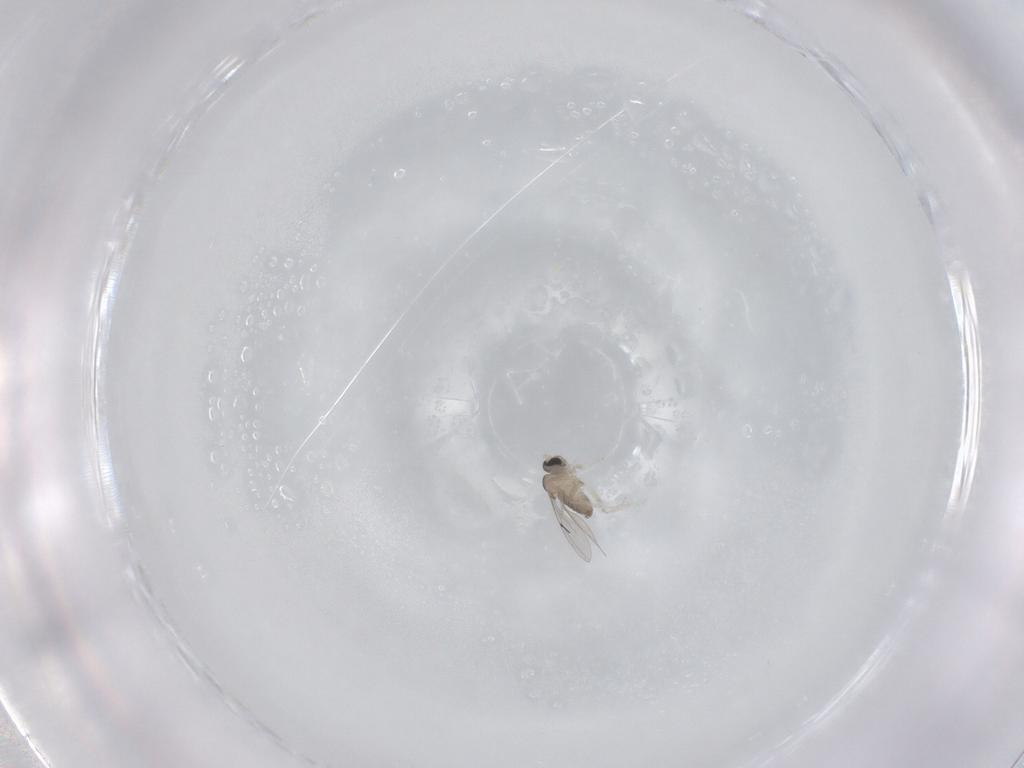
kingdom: Animalia
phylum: Arthropoda
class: Insecta
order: Diptera
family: Cecidomyiidae
